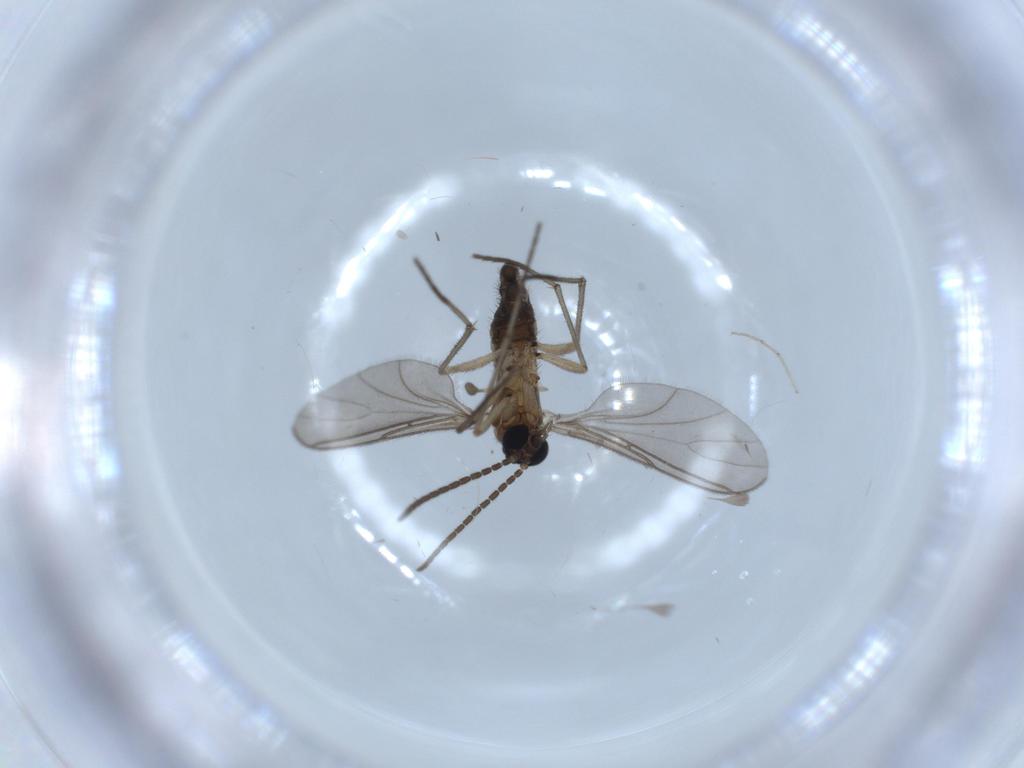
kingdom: Animalia
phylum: Arthropoda
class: Insecta
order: Diptera
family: Sciaridae
